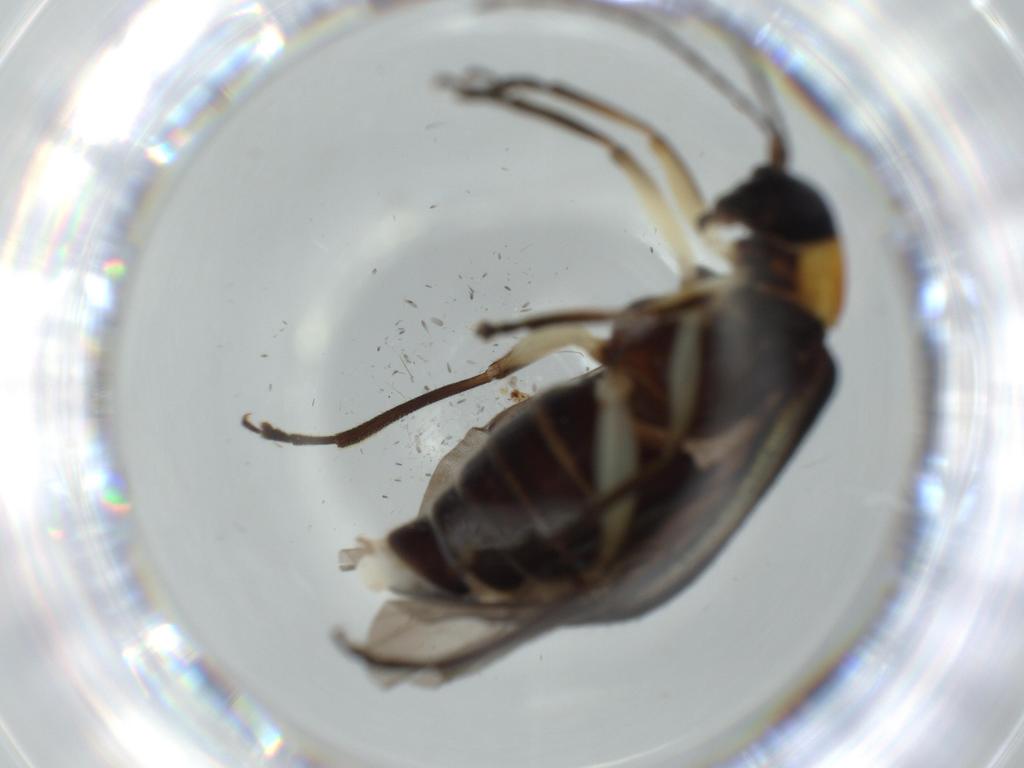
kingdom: Animalia
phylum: Arthropoda
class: Insecta
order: Coleoptera
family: Chrysomelidae
